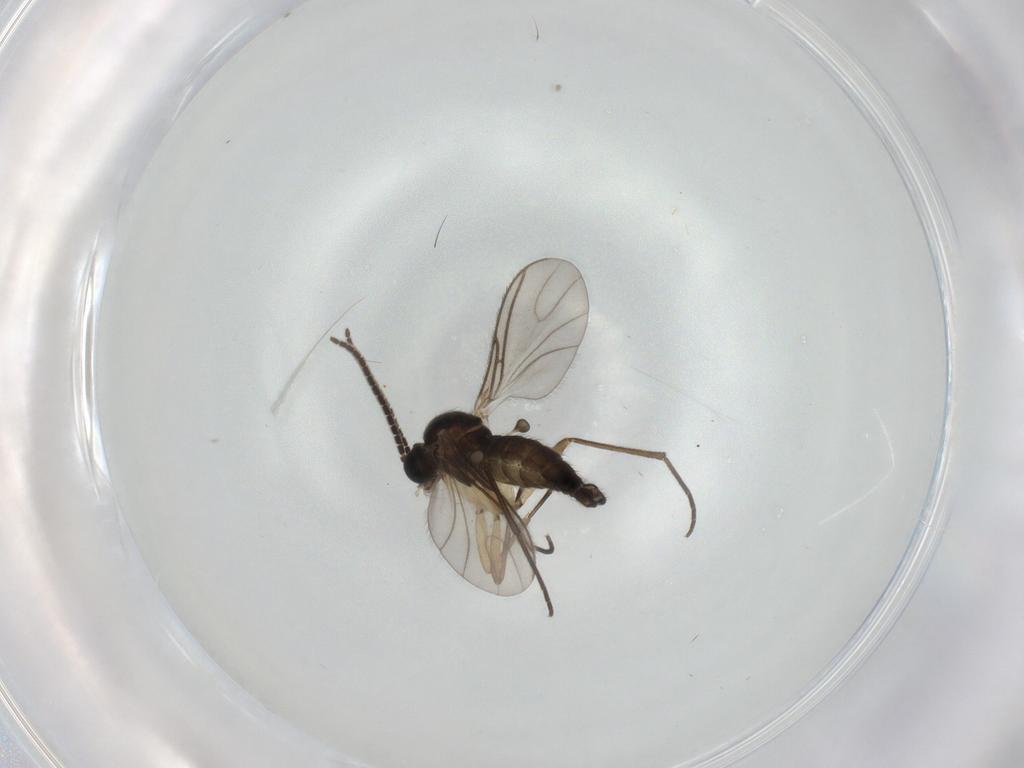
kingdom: Animalia
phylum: Arthropoda
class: Insecta
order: Diptera
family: Sciaridae
